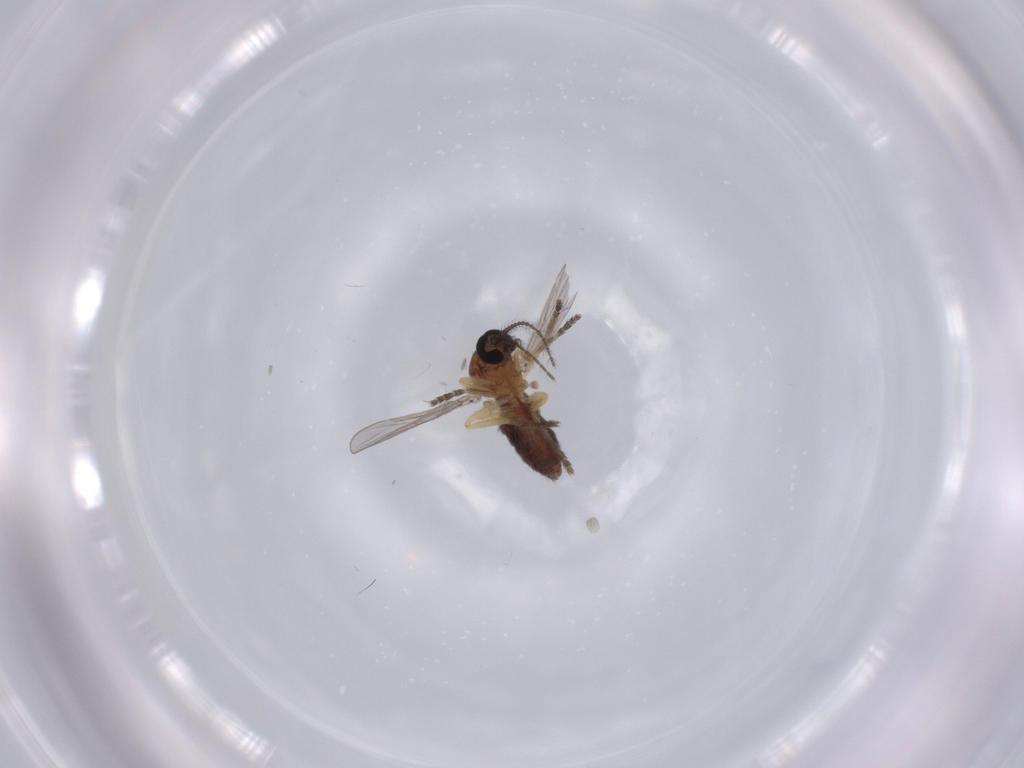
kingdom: Animalia
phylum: Arthropoda
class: Insecta
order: Diptera
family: Ceratopogonidae
